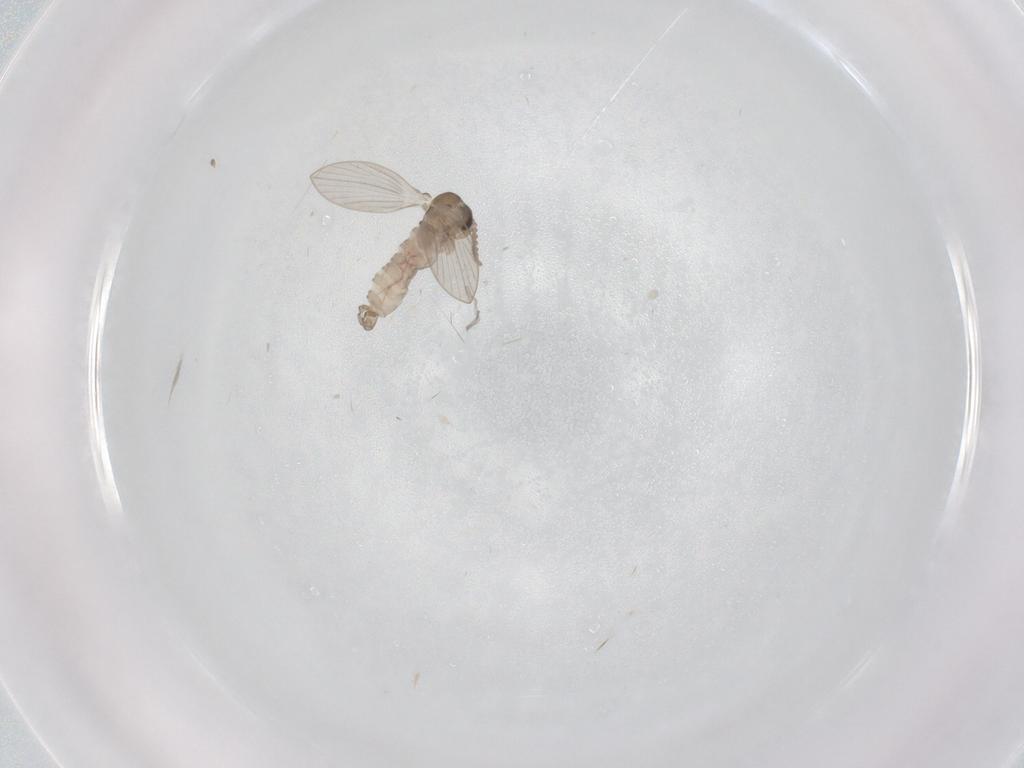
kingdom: Animalia
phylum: Arthropoda
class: Insecta
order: Diptera
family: Psychodidae
